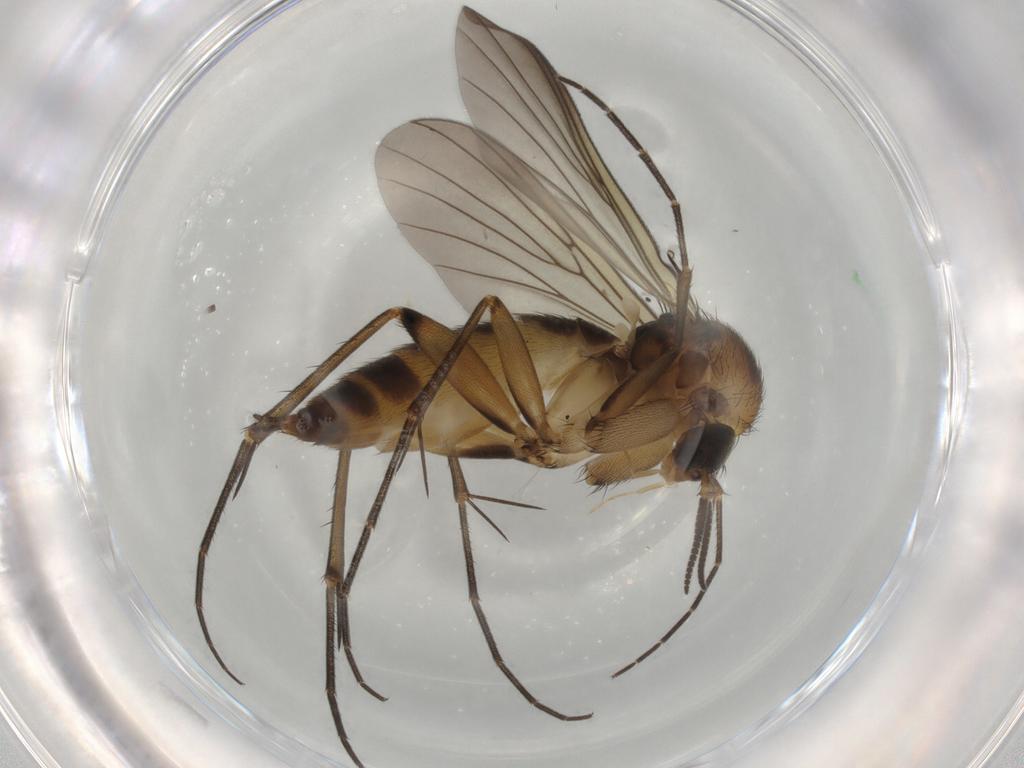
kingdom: Animalia
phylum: Arthropoda
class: Insecta
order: Diptera
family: Mycetophilidae
